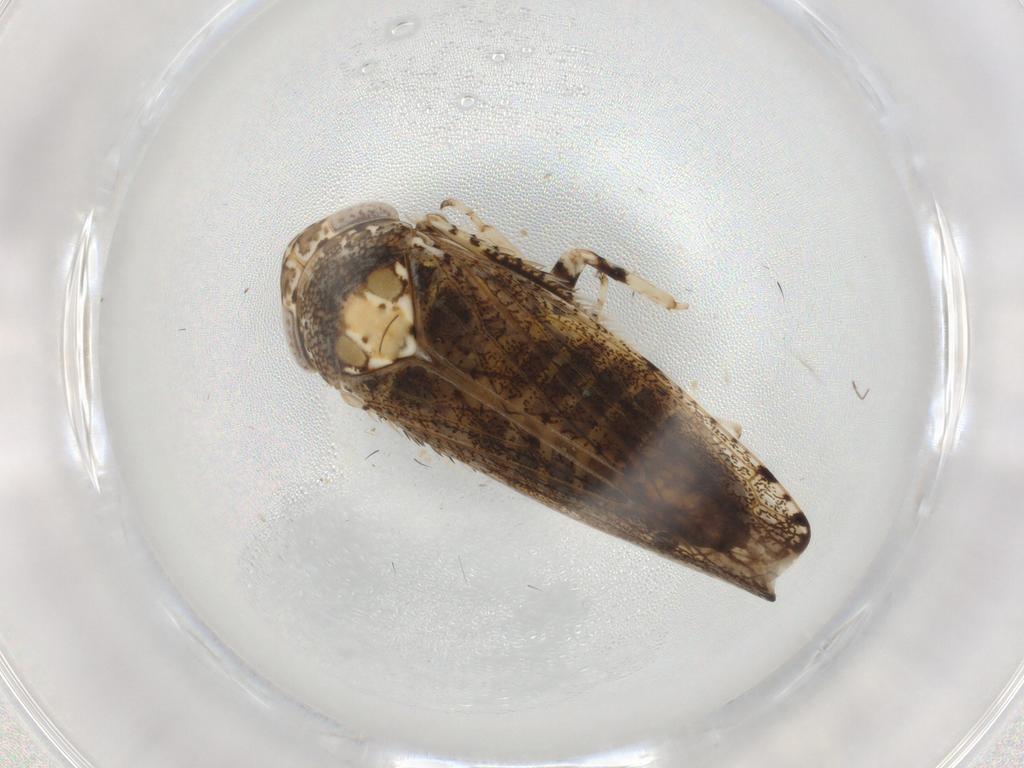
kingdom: Animalia
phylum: Arthropoda
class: Insecta
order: Hemiptera
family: Cicadellidae
